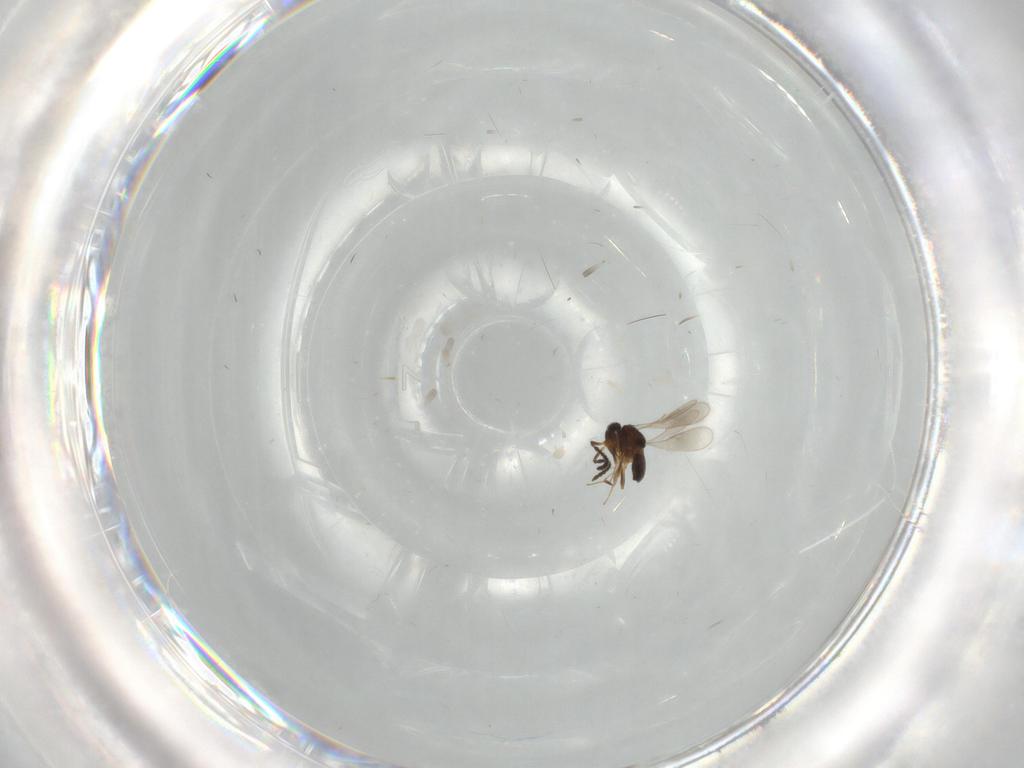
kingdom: Animalia
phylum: Arthropoda
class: Insecta
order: Hymenoptera
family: Scelionidae
